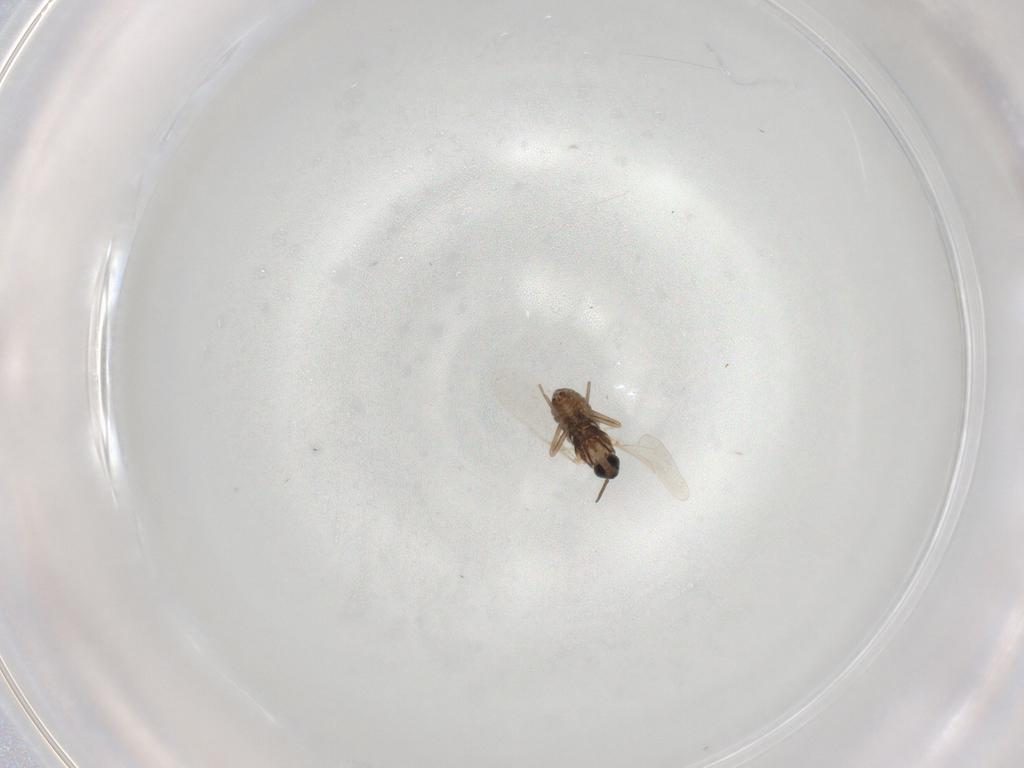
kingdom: Animalia
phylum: Arthropoda
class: Insecta
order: Diptera
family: Cecidomyiidae
